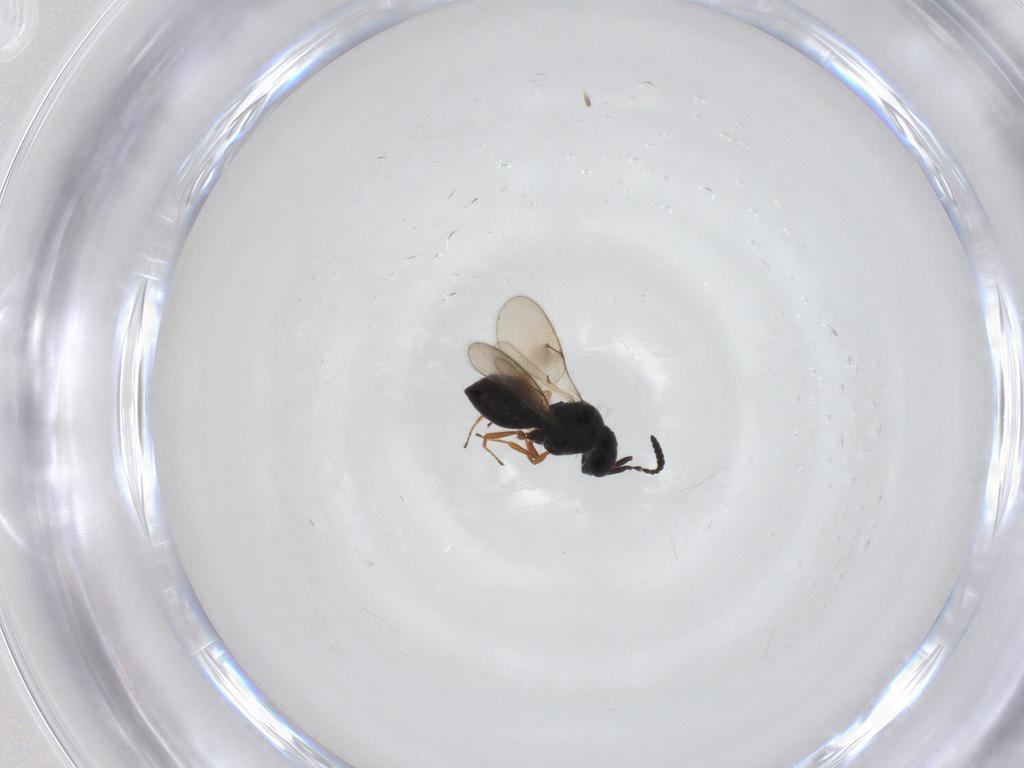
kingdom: Animalia
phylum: Arthropoda
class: Insecta
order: Hymenoptera
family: Scelionidae
